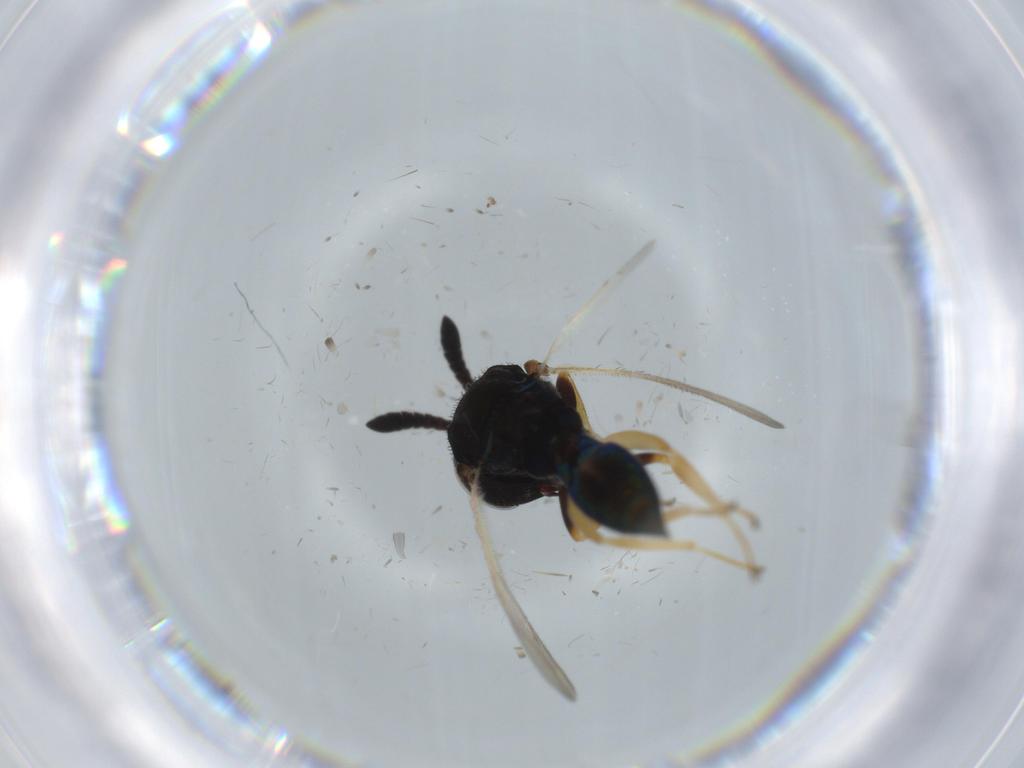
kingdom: Animalia
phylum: Arthropoda
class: Insecta
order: Hymenoptera
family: Pteromalidae
